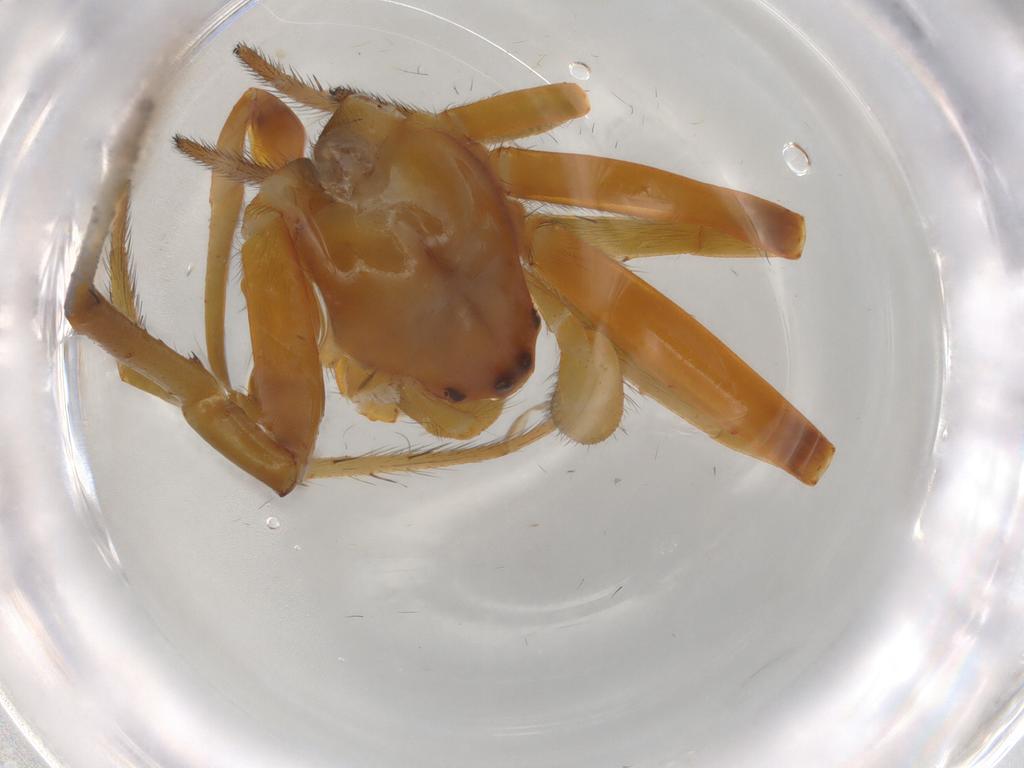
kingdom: Animalia
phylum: Arthropoda
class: Arachnida
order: Araneae
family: Araneidae
